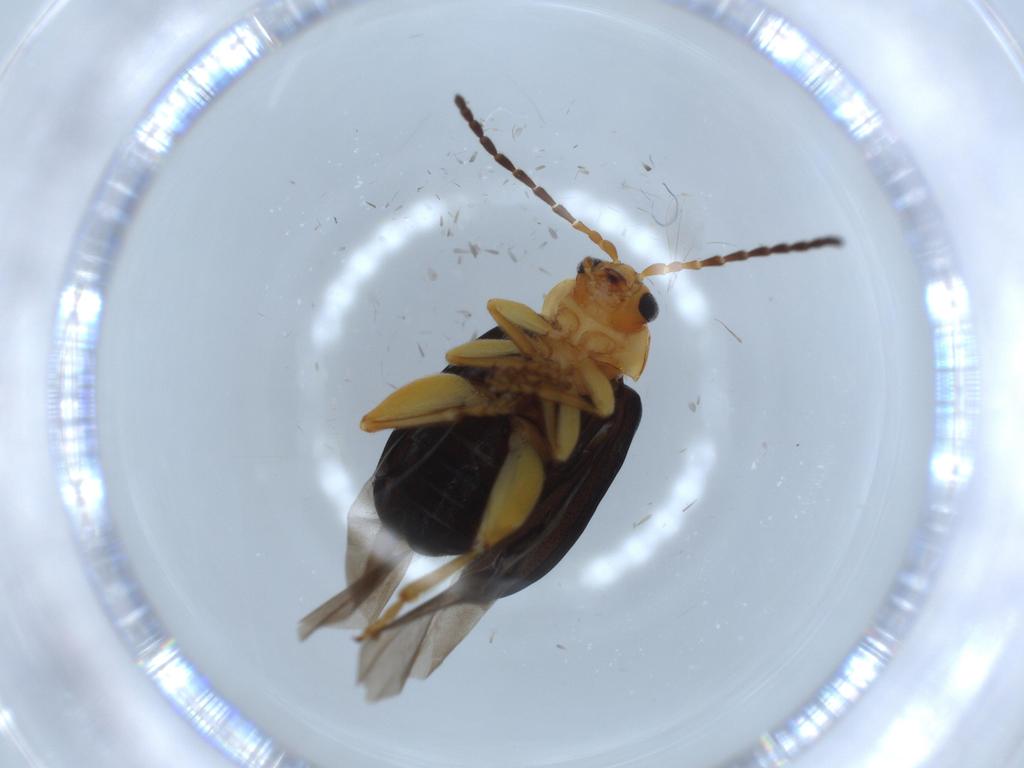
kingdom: Animalia
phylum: Arthropoda
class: Insecta
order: Coleoptera
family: Chrysomelidae
